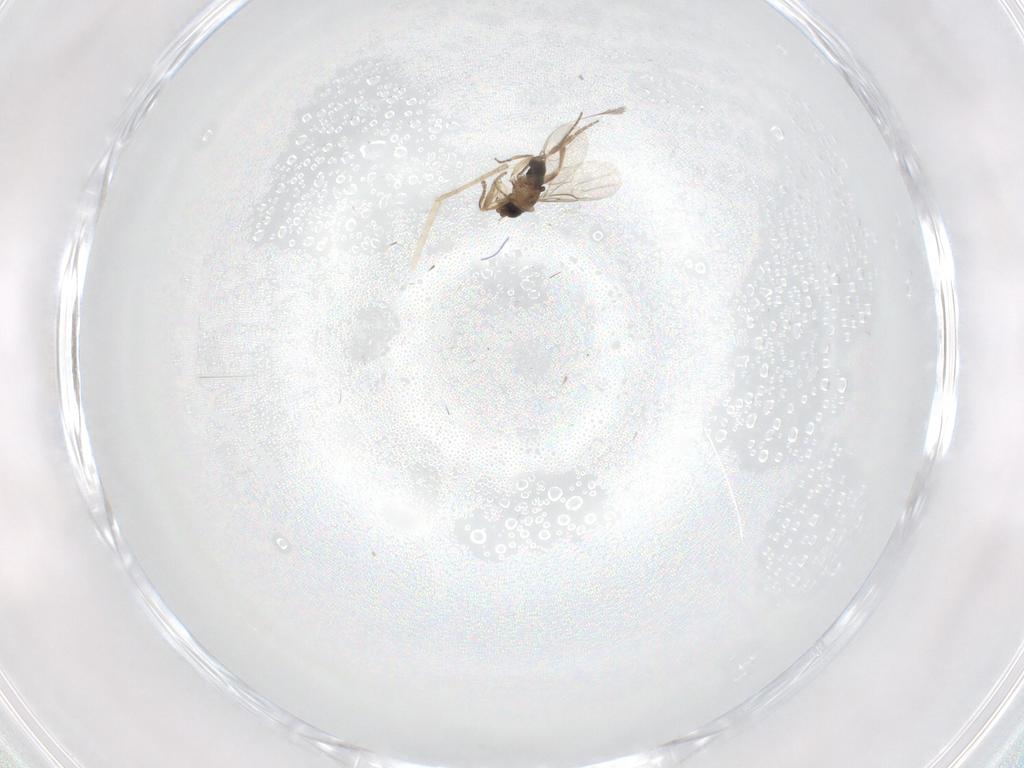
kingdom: Animalia
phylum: Arthropoda
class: Insecta
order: Diptera
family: Phoridae
